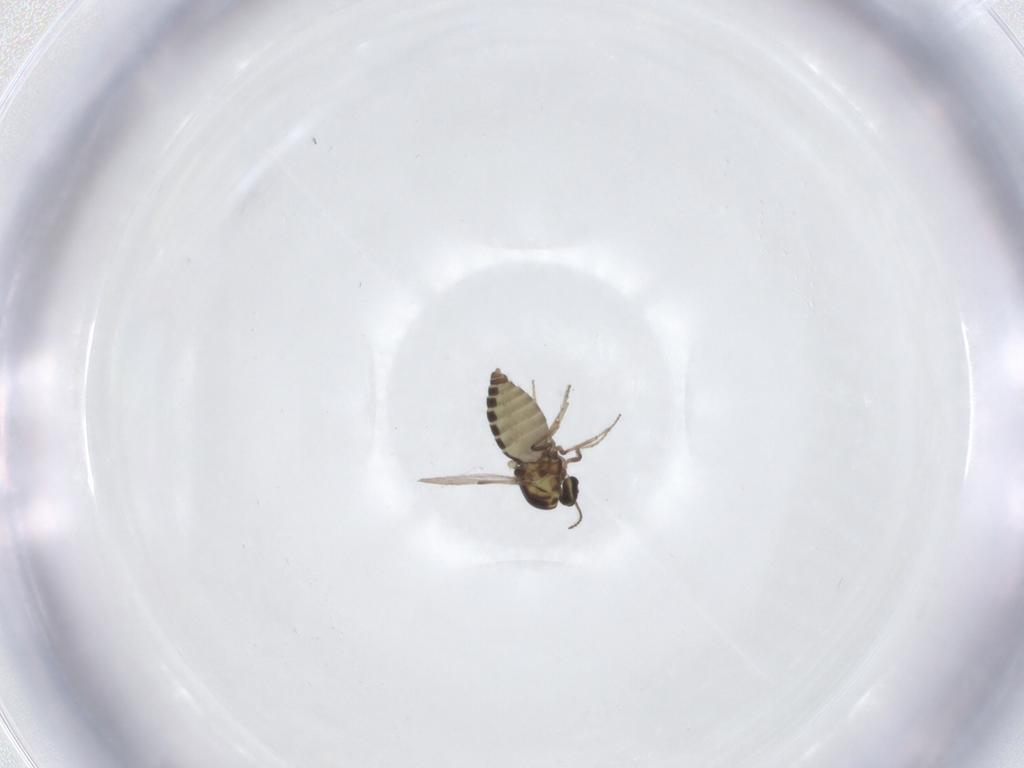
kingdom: Animalia
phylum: Arthropoda
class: Insecta
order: Diptera
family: Ceratopogonidae
